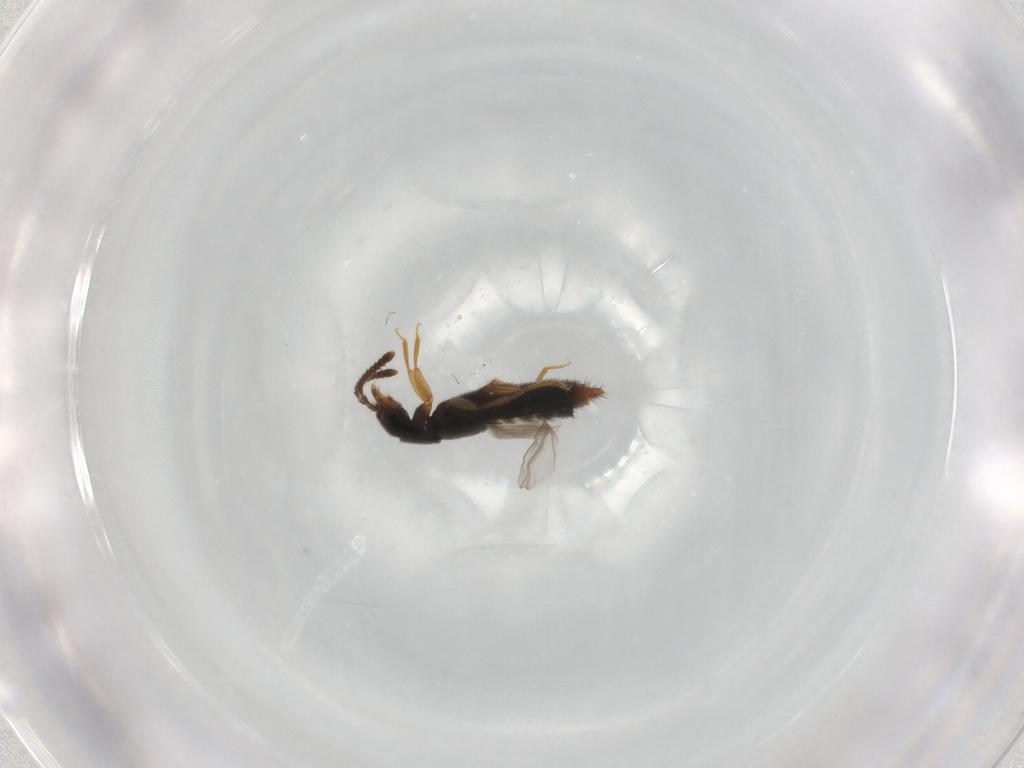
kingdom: Animalia
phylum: Arthropoda
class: Insecta
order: Coleoptera
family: Staphylinidae
